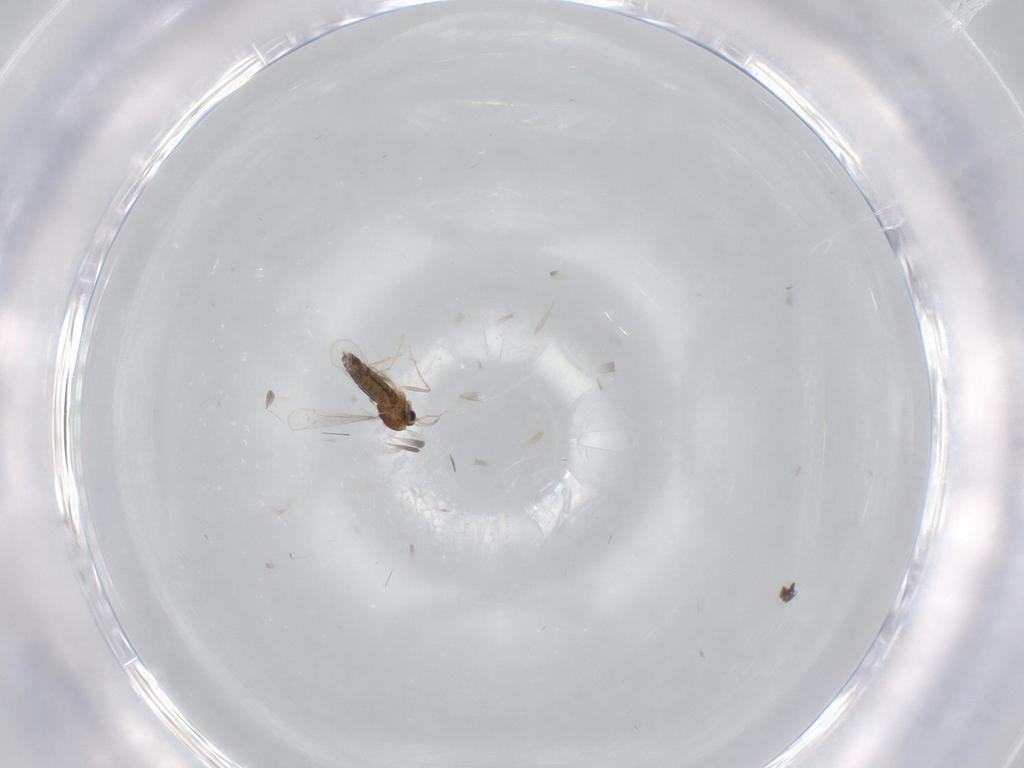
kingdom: Animalia
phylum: Arthropoda
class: Insecta
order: Diptera
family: Chironomidae
